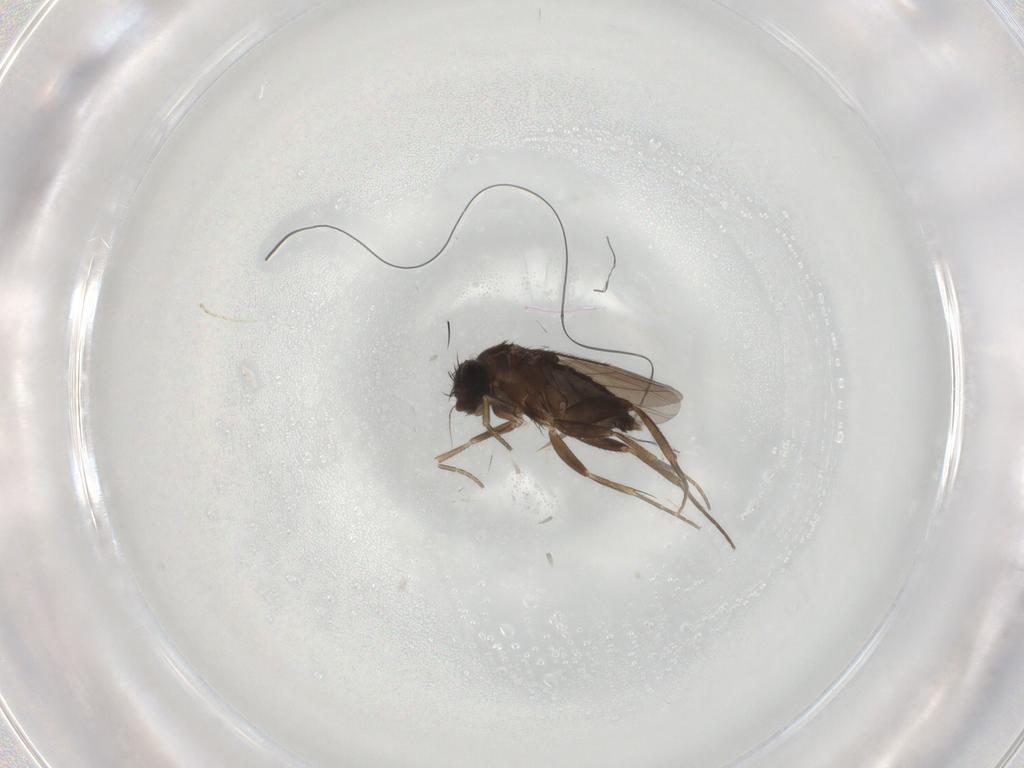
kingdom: Animalia
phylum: Arthropoda
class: Insecta
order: Diptera
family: Phoridae
